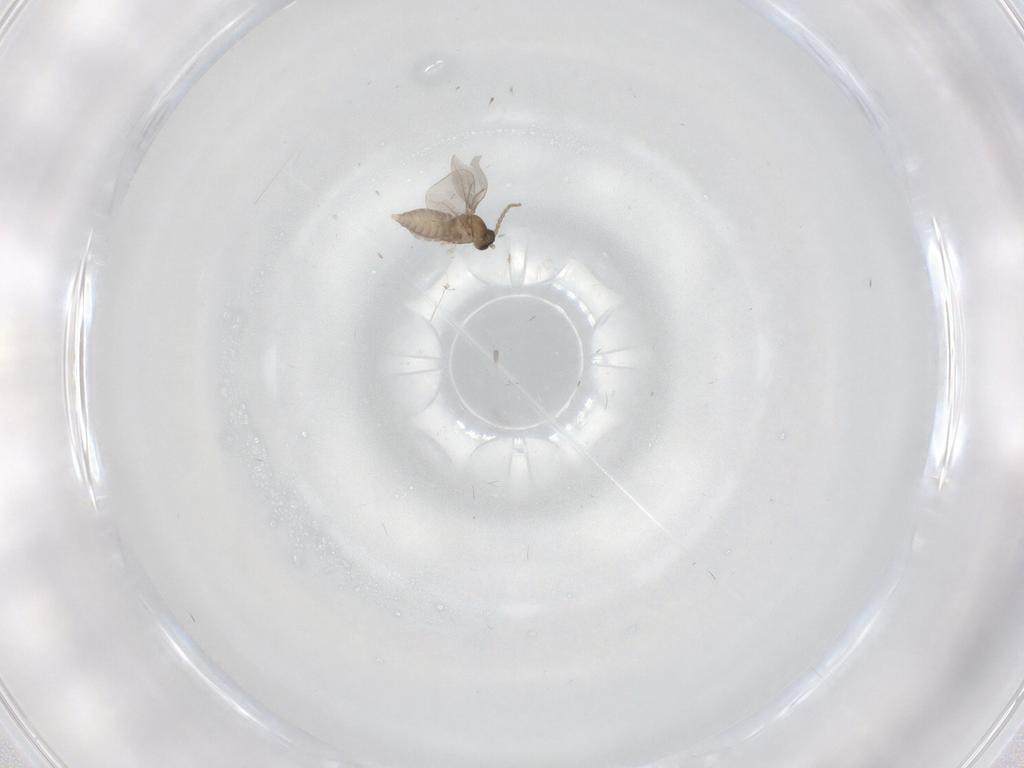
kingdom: Animalia
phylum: Arthropoda
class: Insecta
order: Diptera
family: Cecidomyiidae
